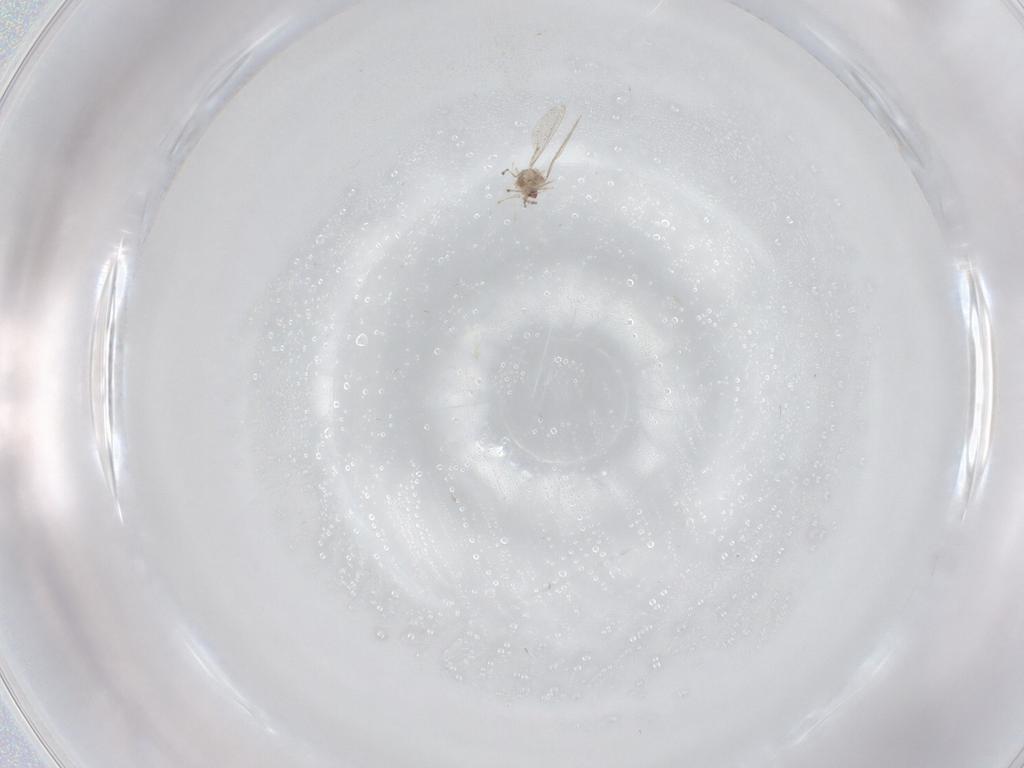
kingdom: Animalia
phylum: Arthropoda
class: Insecta
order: Diptera
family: Cecidomyiidae
